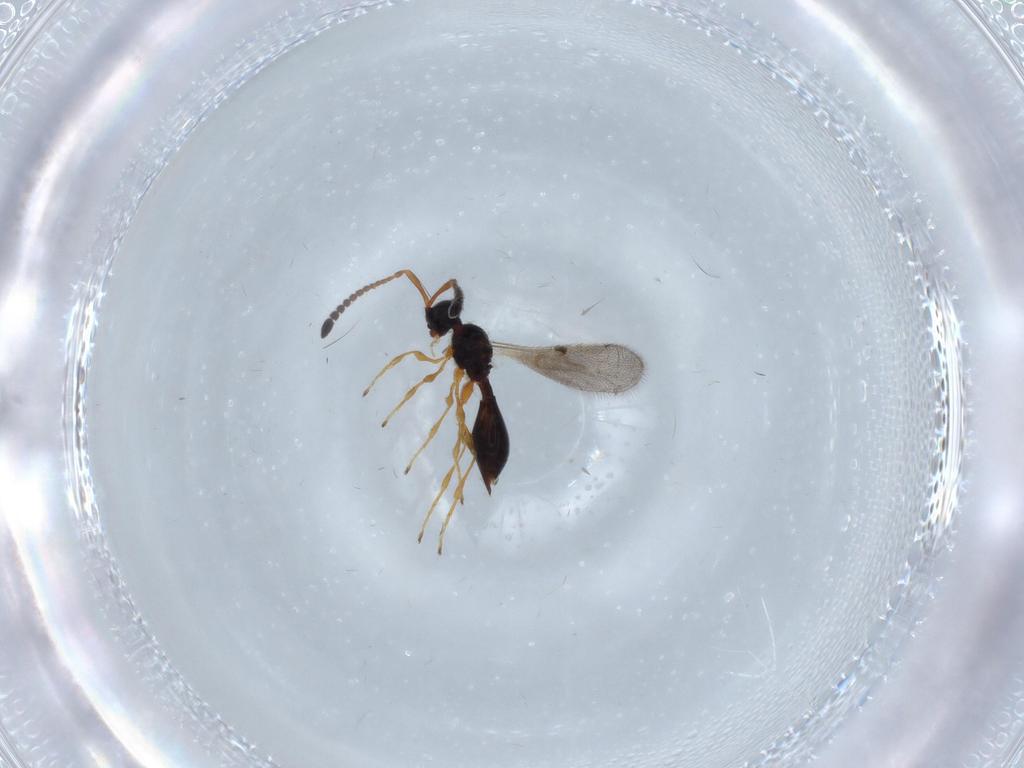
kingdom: Animalia
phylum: Arthropoda
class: Insecta
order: Hymenoptera
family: Diapriidae
